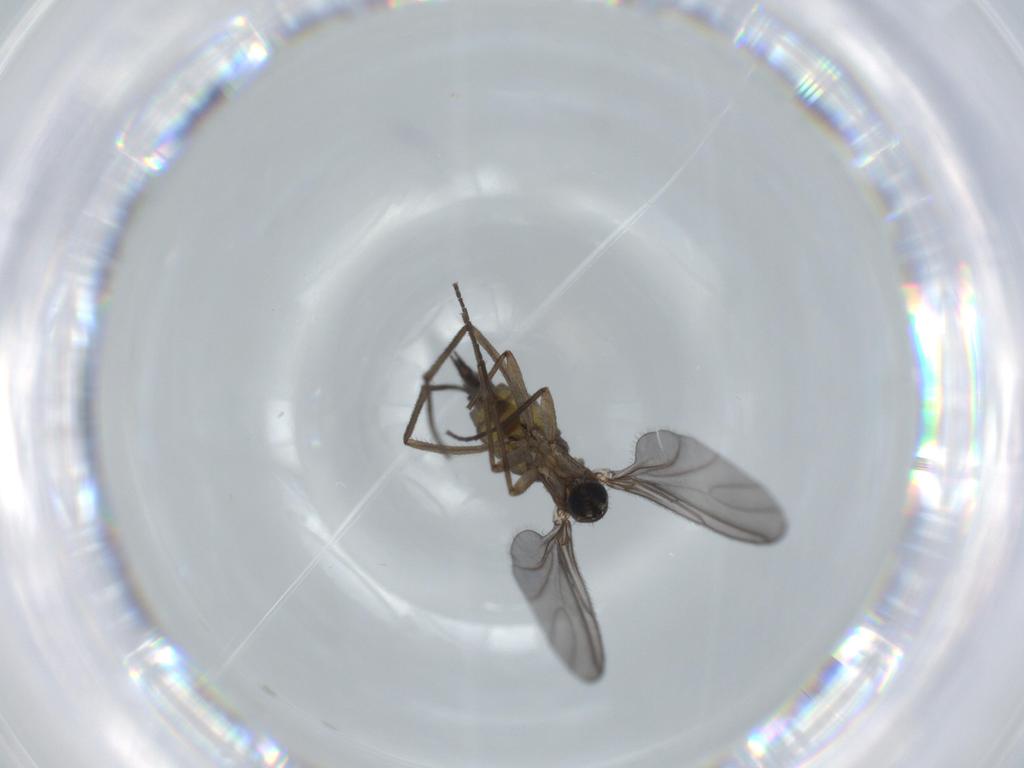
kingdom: Animalia
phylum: Arthropoda
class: Insecta
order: Diptera
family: Sciaridae
